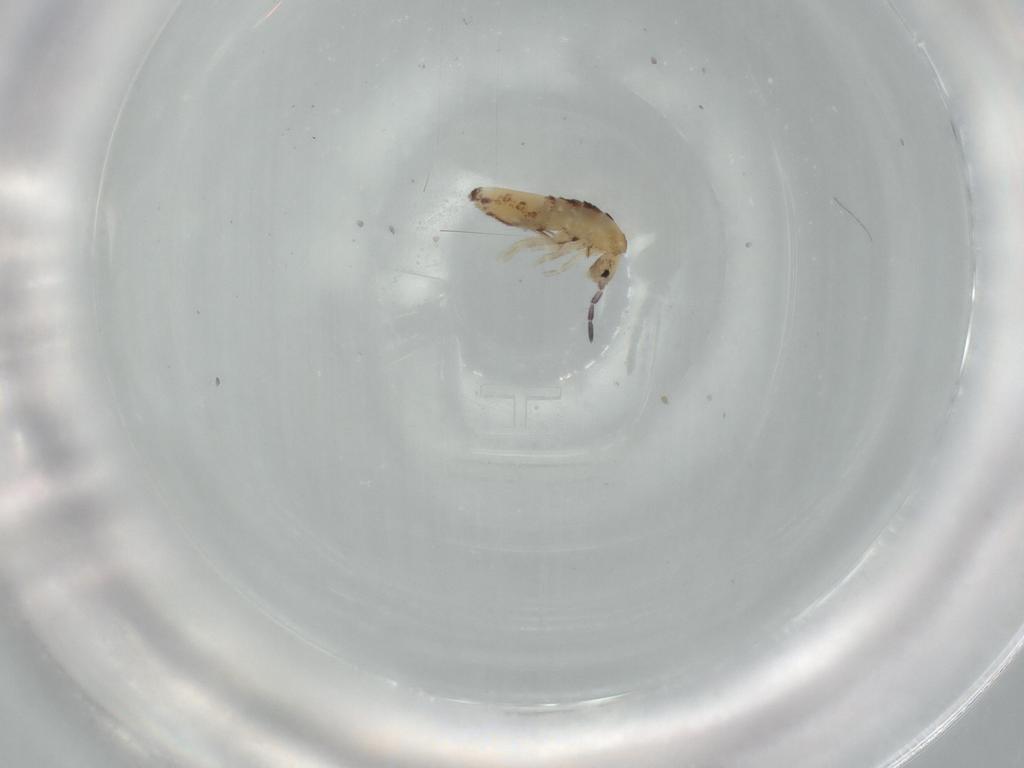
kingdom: Animalia
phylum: Arthropoda
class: Collembola
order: Entomobryomorpha
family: Entomobryidae
